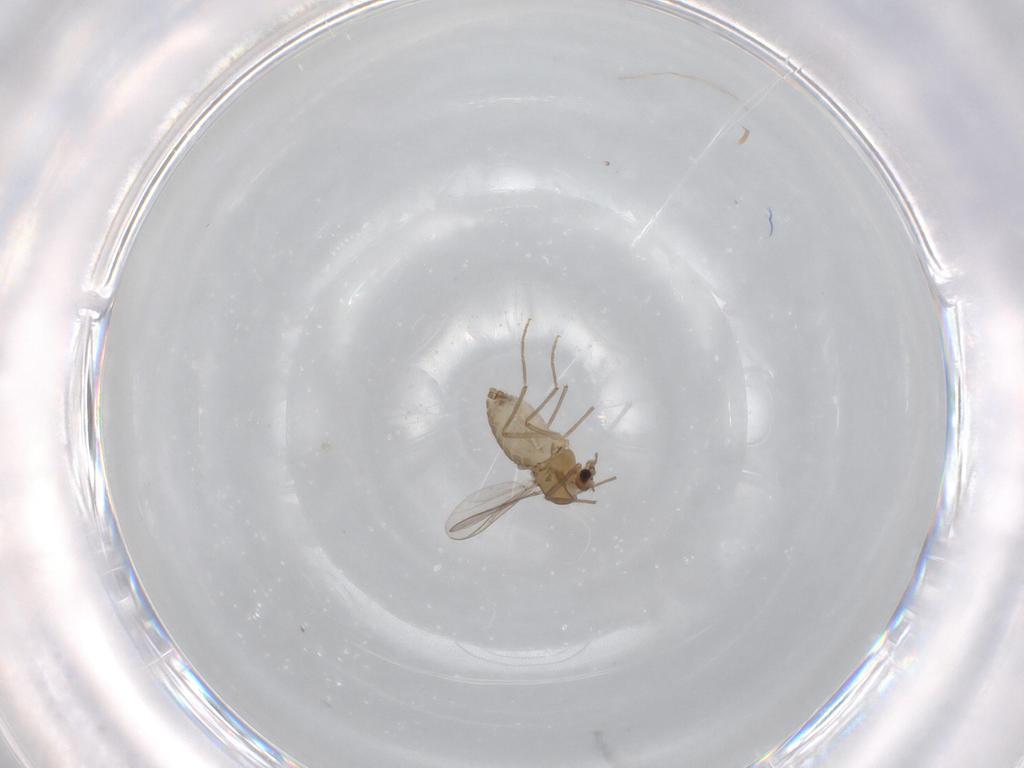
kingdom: Animalia
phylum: Arthropoda
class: Insecta
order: Diptera
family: Chironomidae
